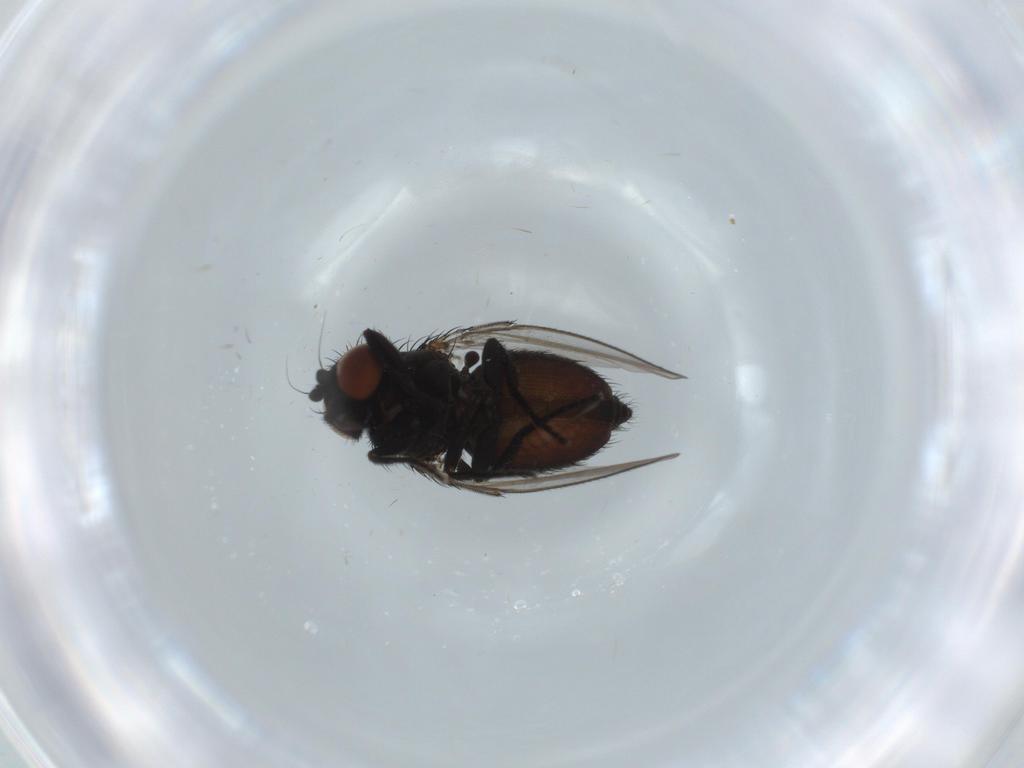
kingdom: Animalia
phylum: Arthropoda
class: Insecta
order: Diptera
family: Milichiidae
